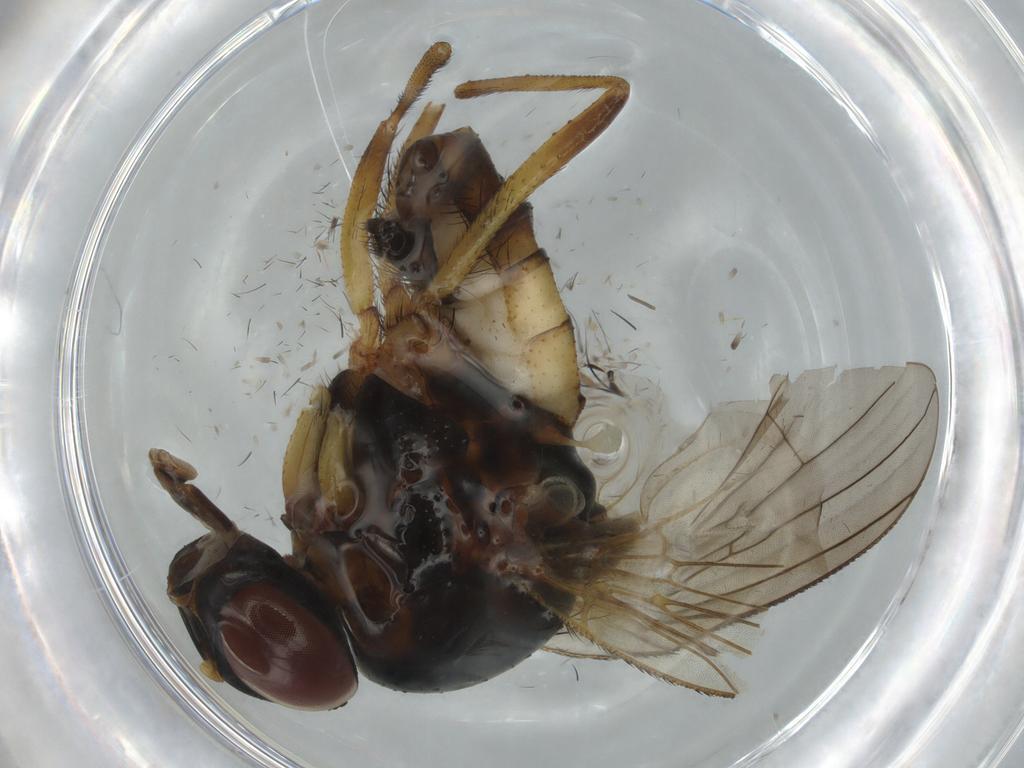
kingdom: Animalia
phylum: Arthropoda
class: Insecta
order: Diptera
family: Anthomyiidae
